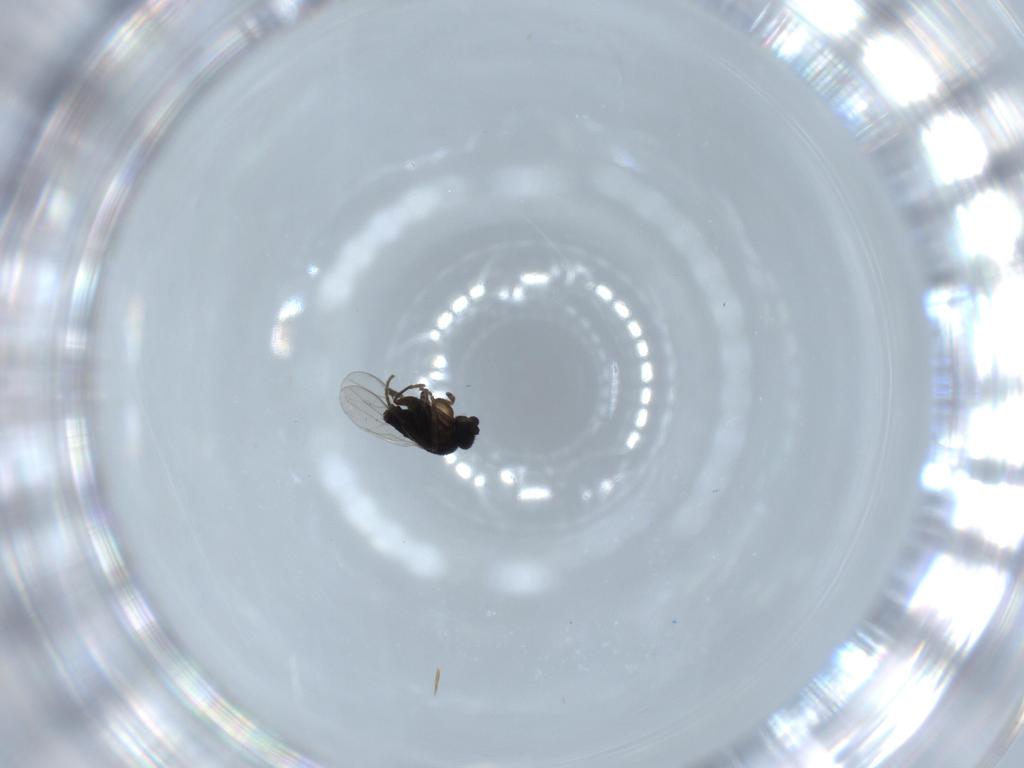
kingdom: Animalia
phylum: Arthropoda
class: Insecta
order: Diptera
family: Phoridae
